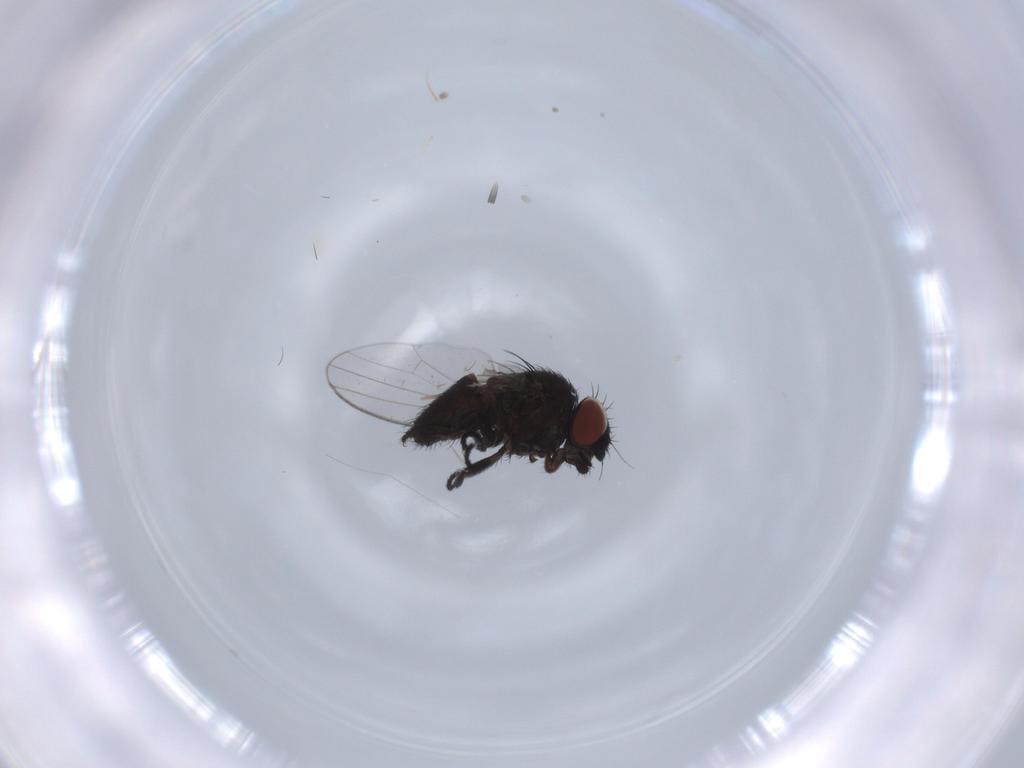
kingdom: Animalia
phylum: Arthropoda
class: Insecta
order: Diptera
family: Milichiidae
